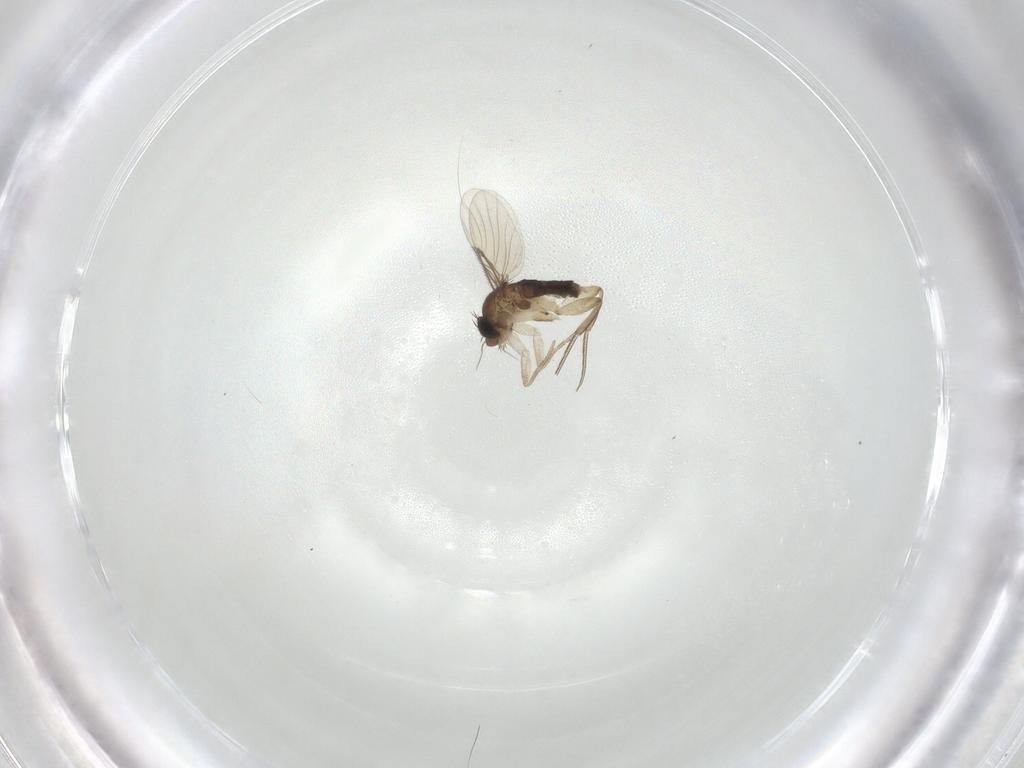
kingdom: Animalia
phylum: Arthropoda
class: Insecta
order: Diptera
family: Phoridae
